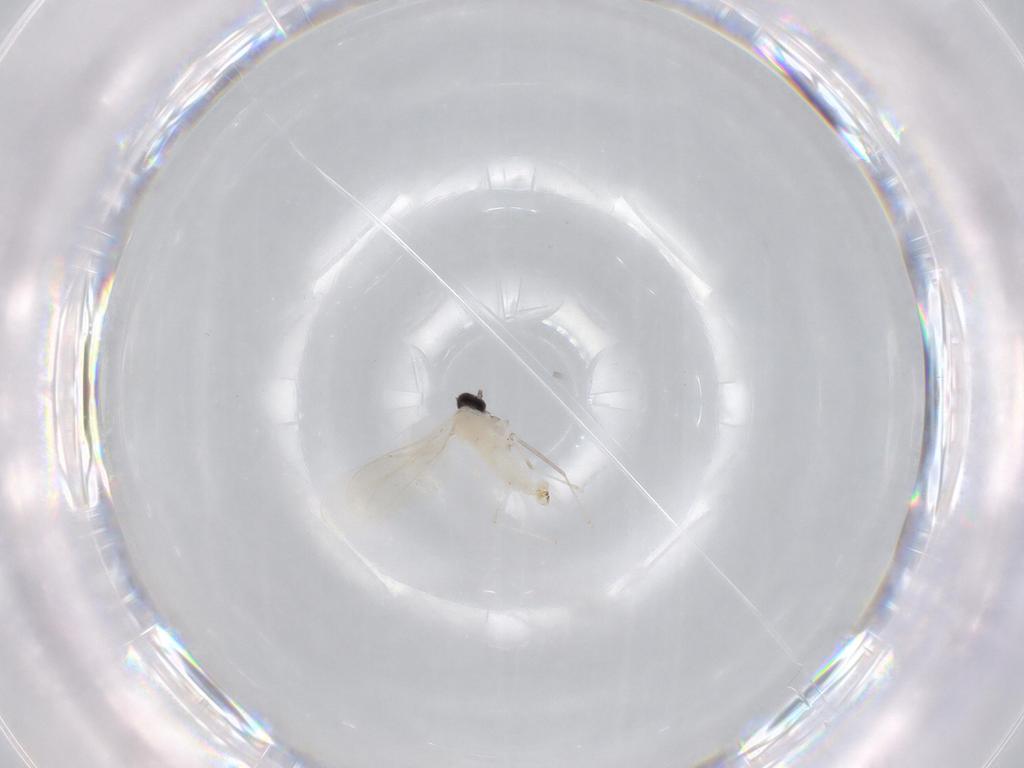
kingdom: Animalia
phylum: Arthropoda
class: Insecta
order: Diptera
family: Cecidomyiidae
